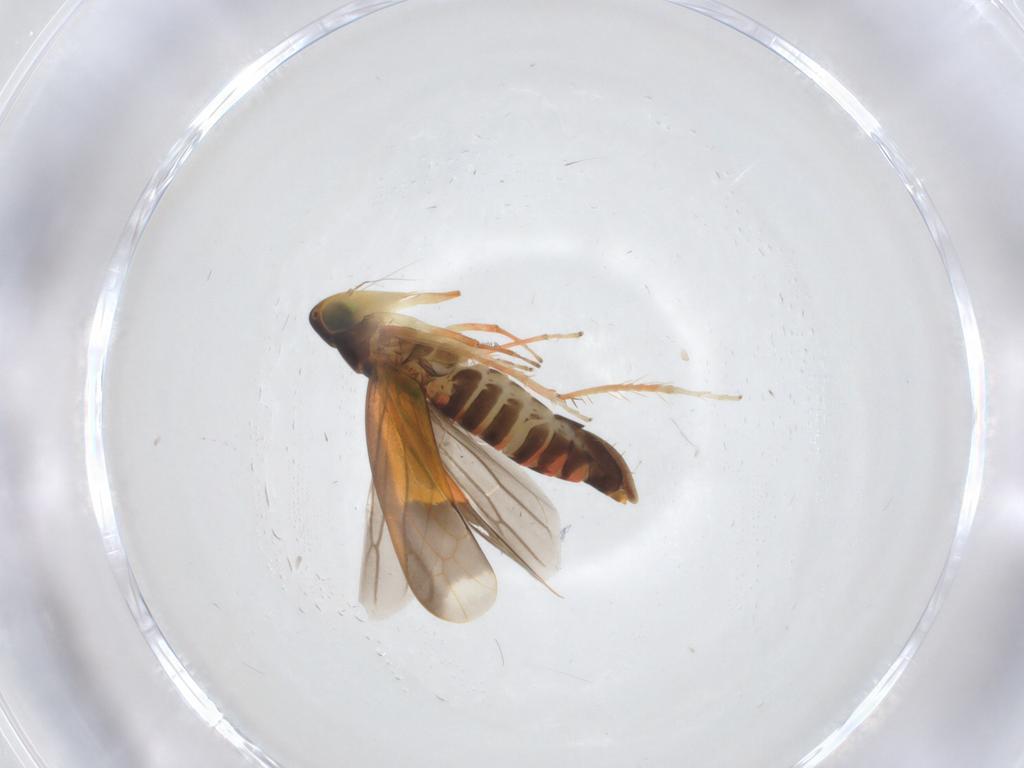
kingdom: Animalia
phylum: Arthropoda
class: Insecta
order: Hemiptera
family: Cicadellidae
